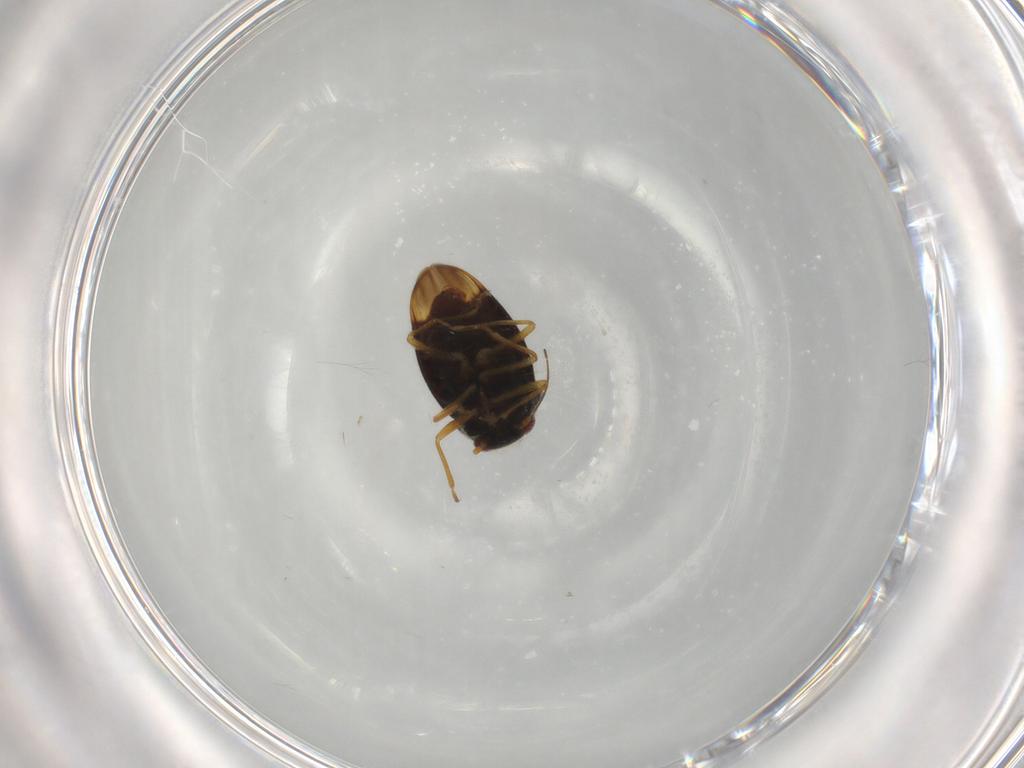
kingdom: Animalia
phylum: Arthropoda
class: Insecta
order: Hemiptera
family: Schizopteridae
